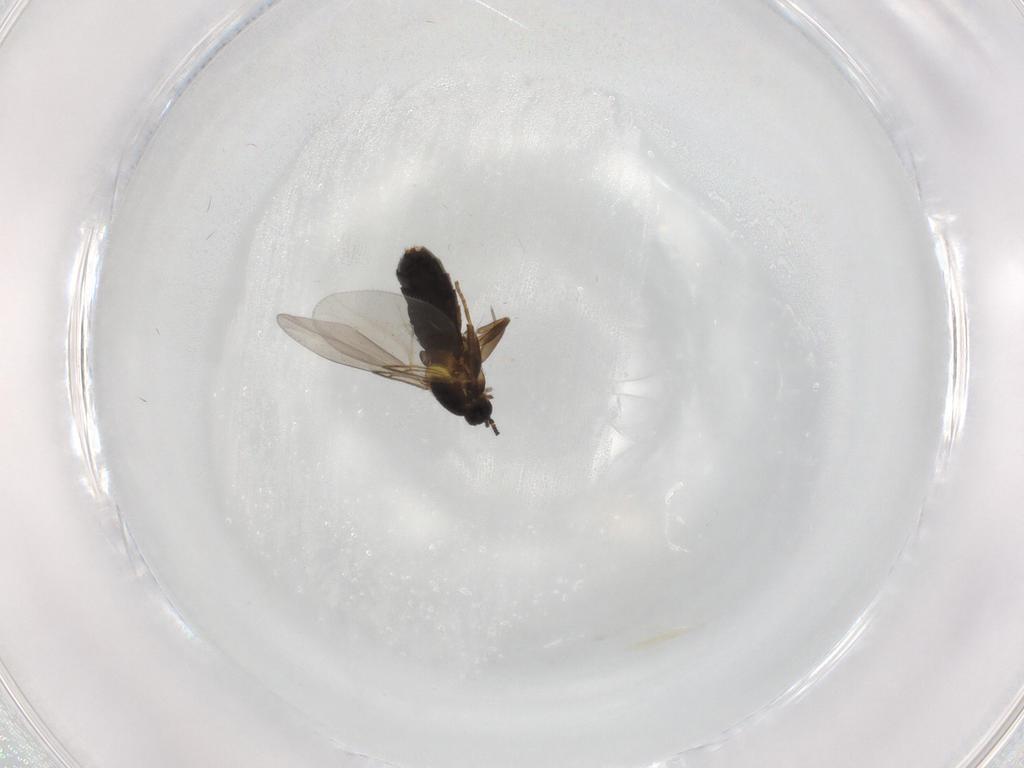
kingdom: Animalia
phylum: Arthropoda
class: Insecta
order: Diptera
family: Scatopsidae
